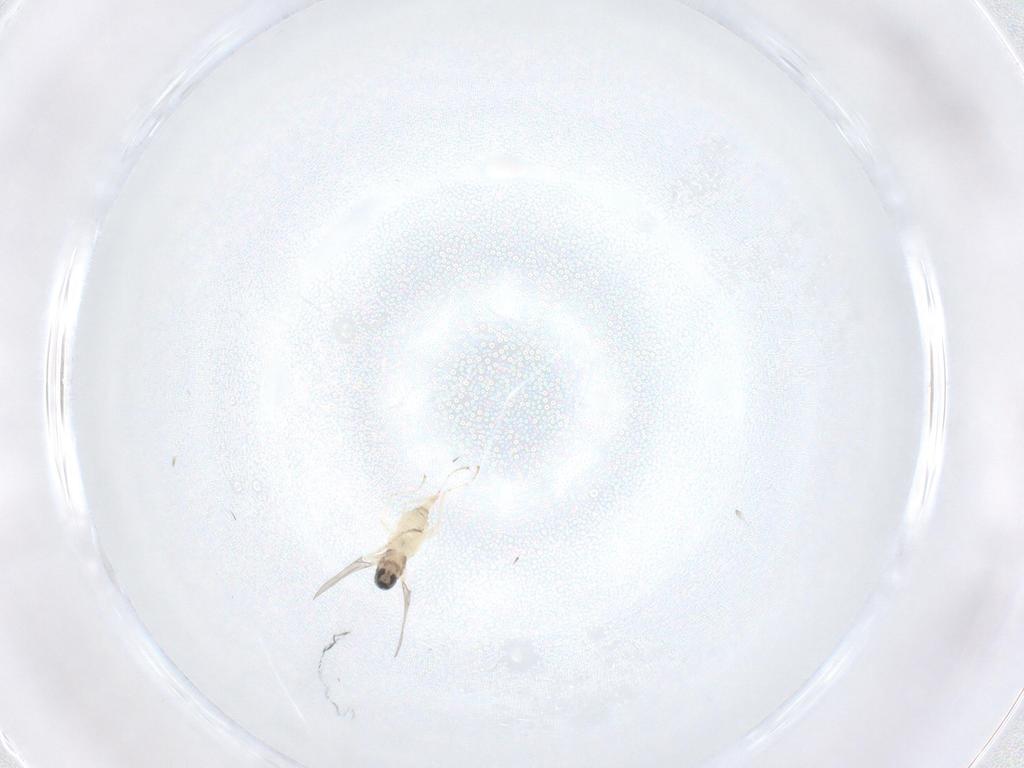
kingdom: Animalia
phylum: Arthropoda
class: Insecta
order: Diptera
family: Cecidomyiidae
